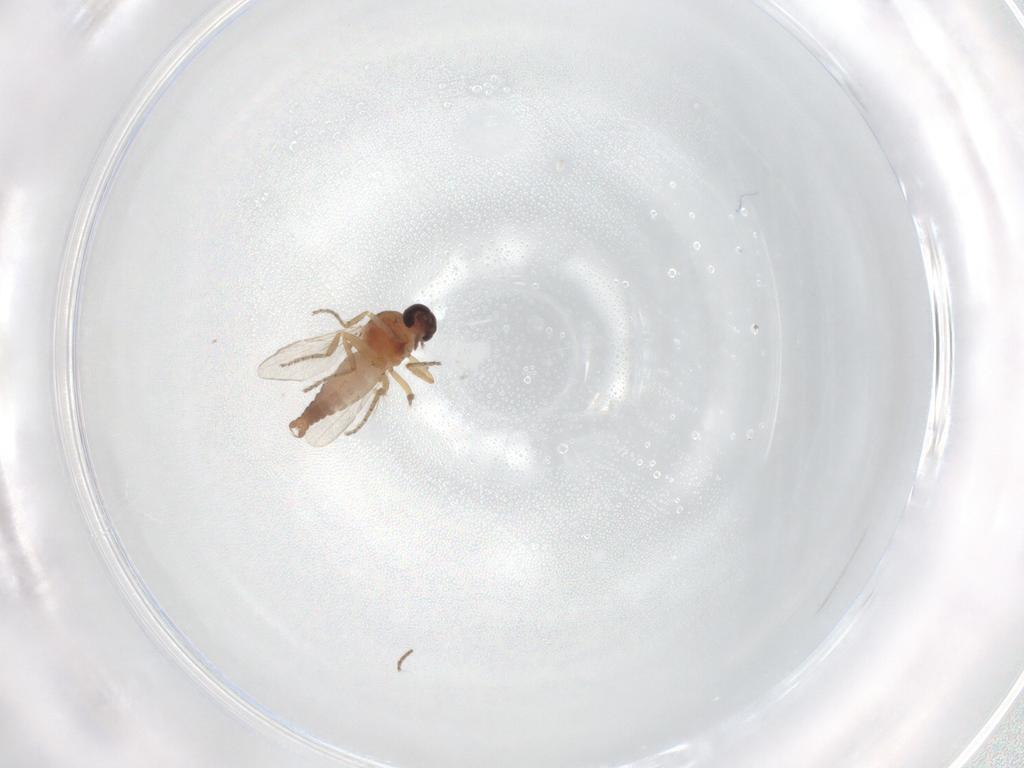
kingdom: Animalia
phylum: Arthropoda
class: Insecta
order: Diptera
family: Ceratopogonidae
